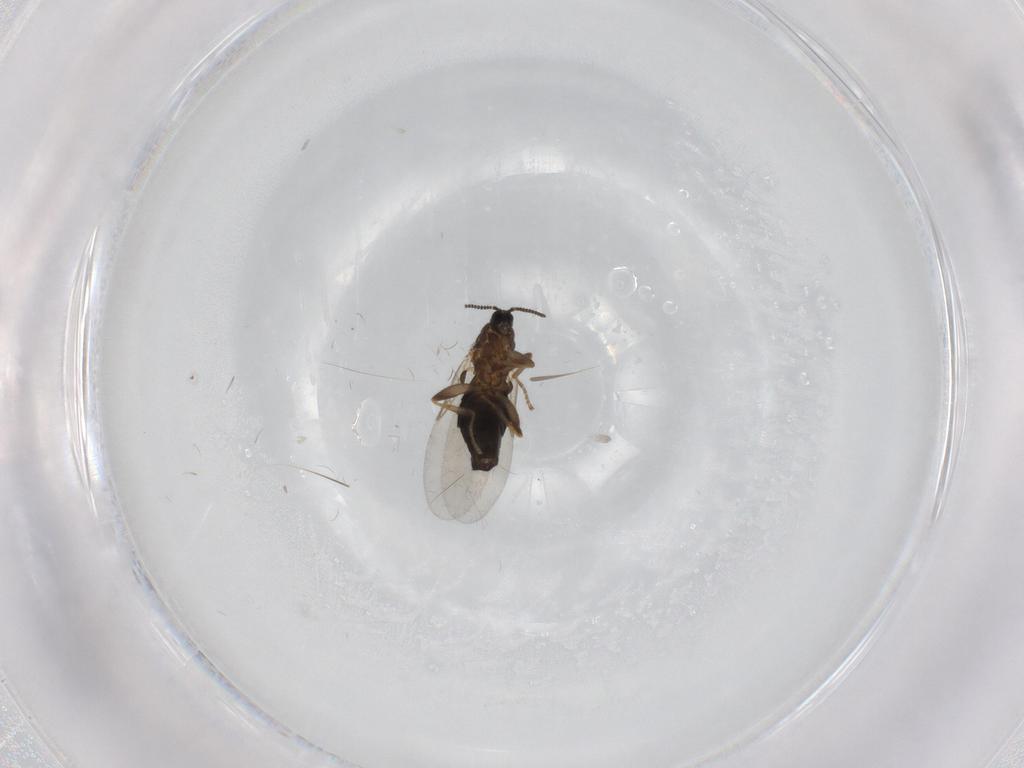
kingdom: Animalia
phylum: Arthropoda
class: Insecta
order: Diptera
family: Scatopsidae
